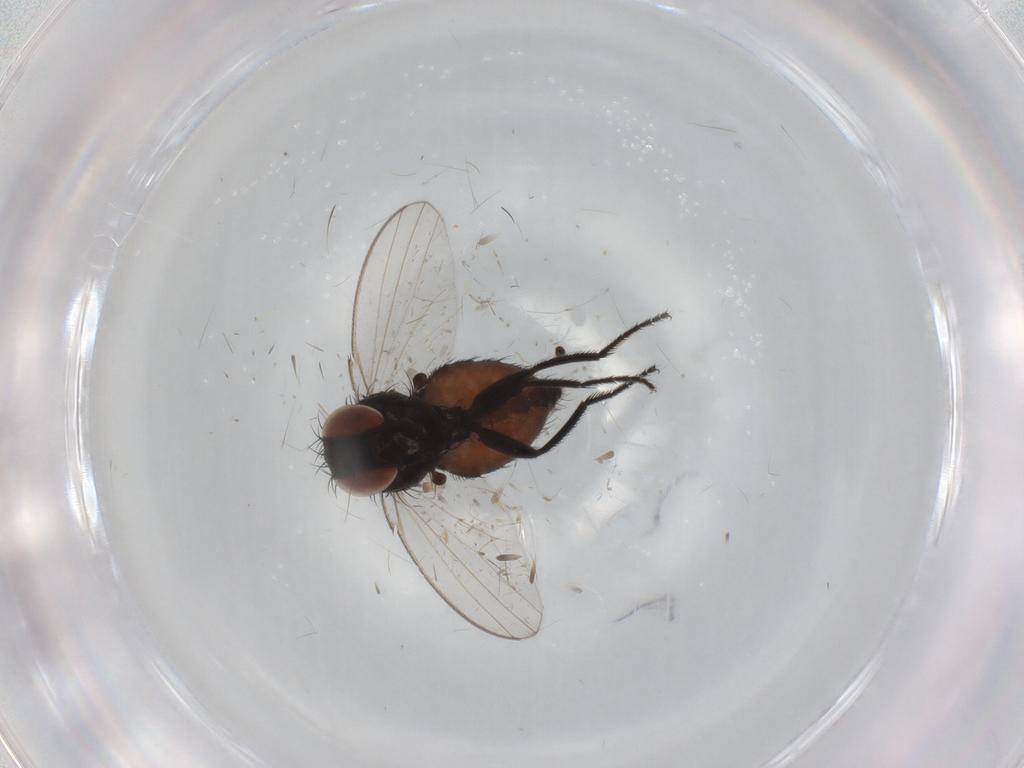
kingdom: Animalia
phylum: Arthropoda
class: Insecta
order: Diptera
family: Milichiidae
